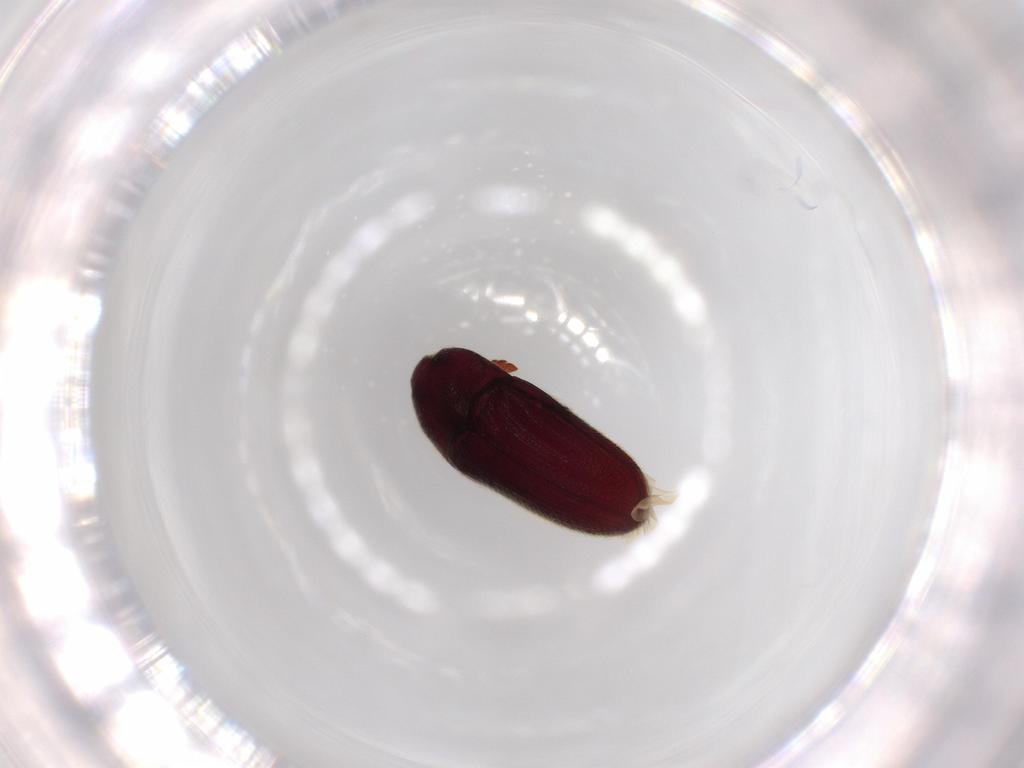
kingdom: Animalia
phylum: Arthropoda
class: Insecta
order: Coleoptera
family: Throscidae
